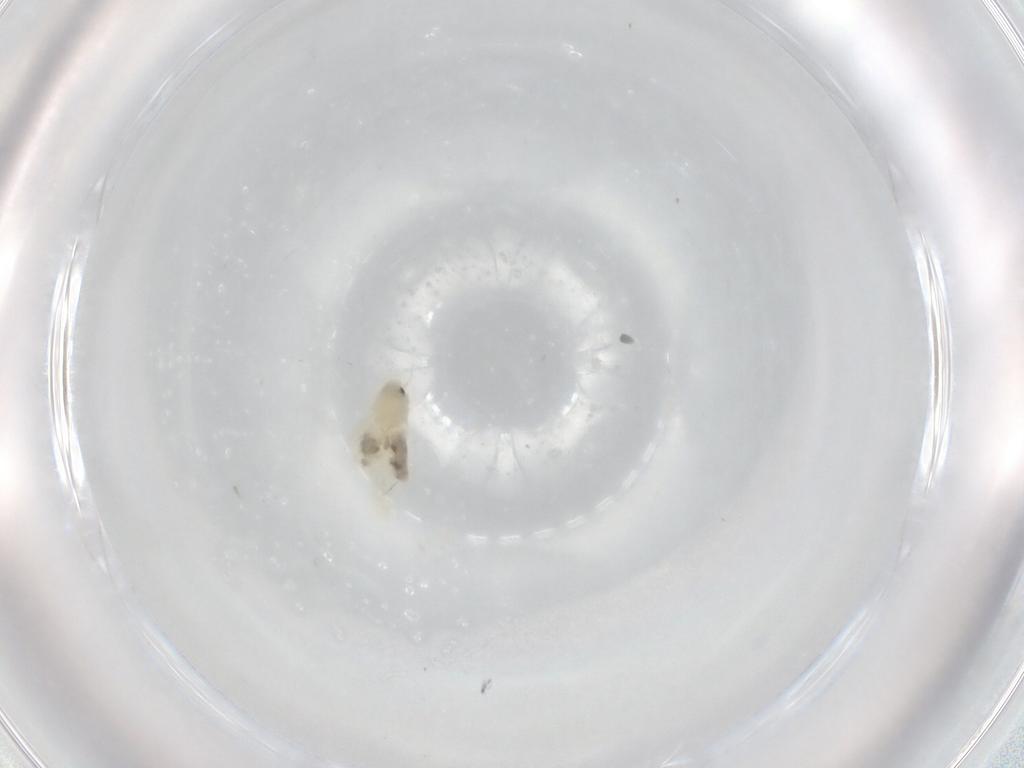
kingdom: Animalia
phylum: Arthropoda
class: Insecta
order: Hemiptera
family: Aleyrodidae
